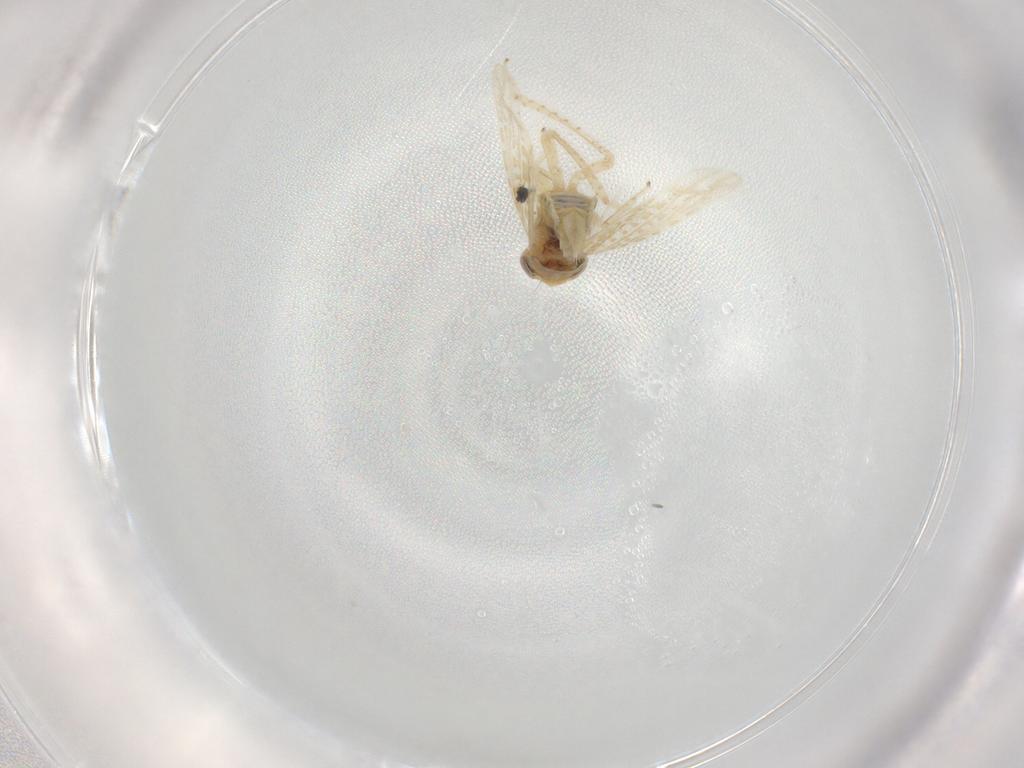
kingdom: Animalia
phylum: Arthropoda
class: Insecta
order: Hemiptera
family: Cicadellidae
